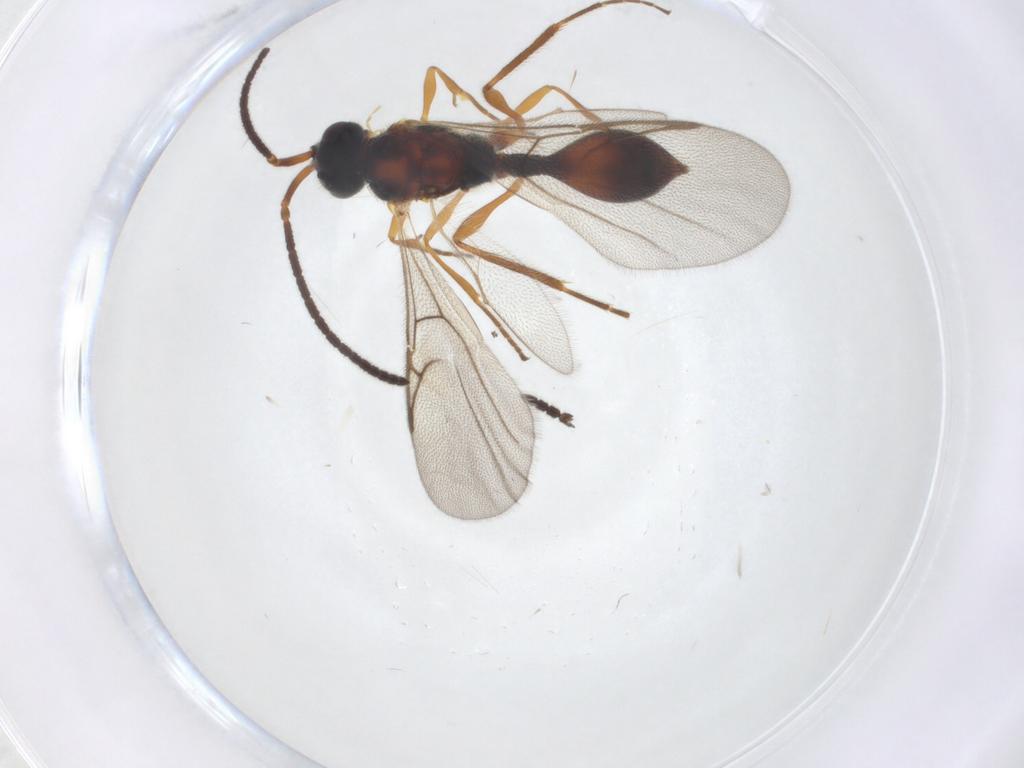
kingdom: Animalia
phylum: Arthropoda
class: Insecta
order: Hymenoptera
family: Diapriidae
